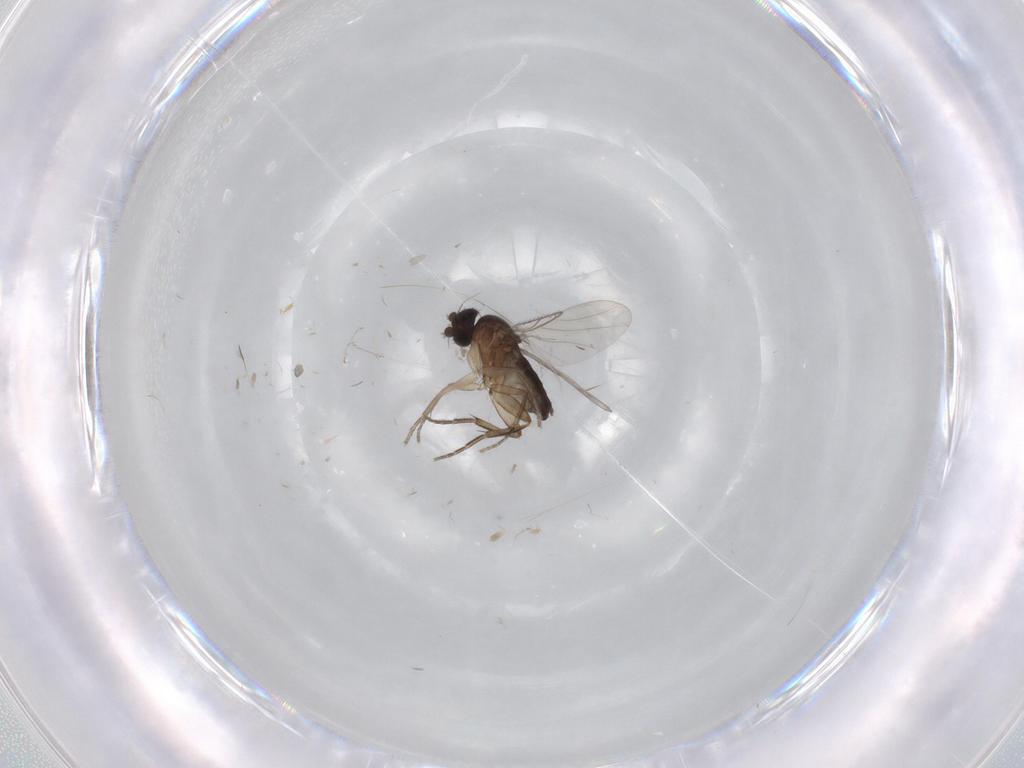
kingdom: Animalia
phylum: Arthropoda
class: Insecta
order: Diptera
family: Phoridae
